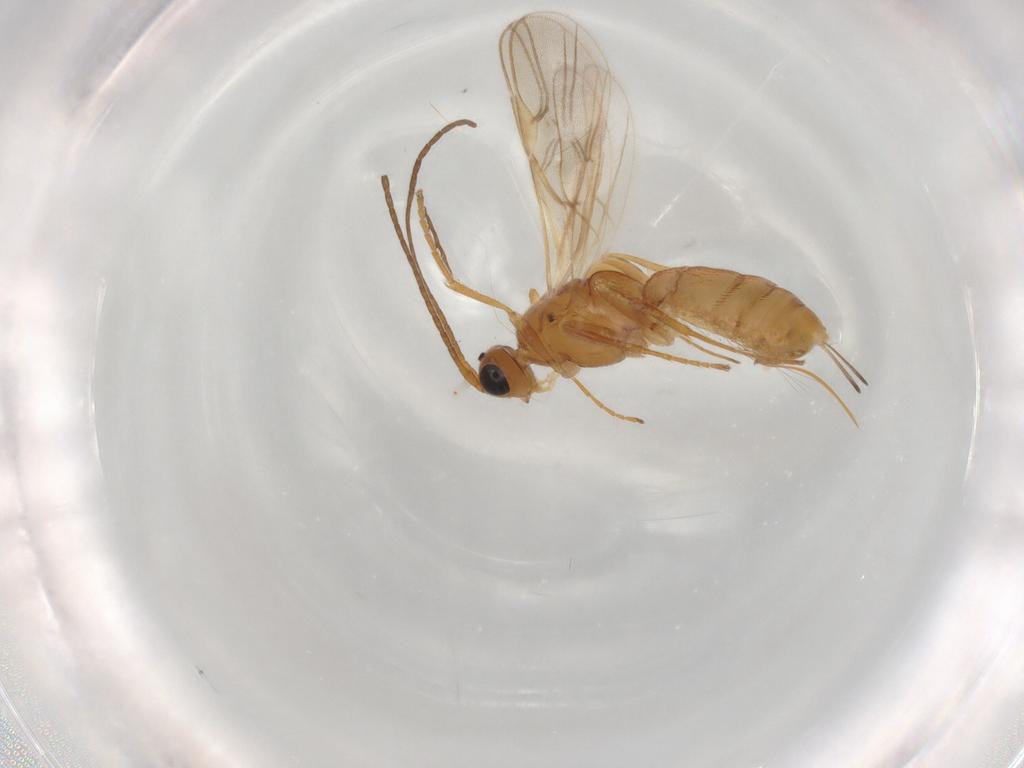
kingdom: Animalia
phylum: Arthropoda
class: Insecta
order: Hymenoptera
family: Braconidae
